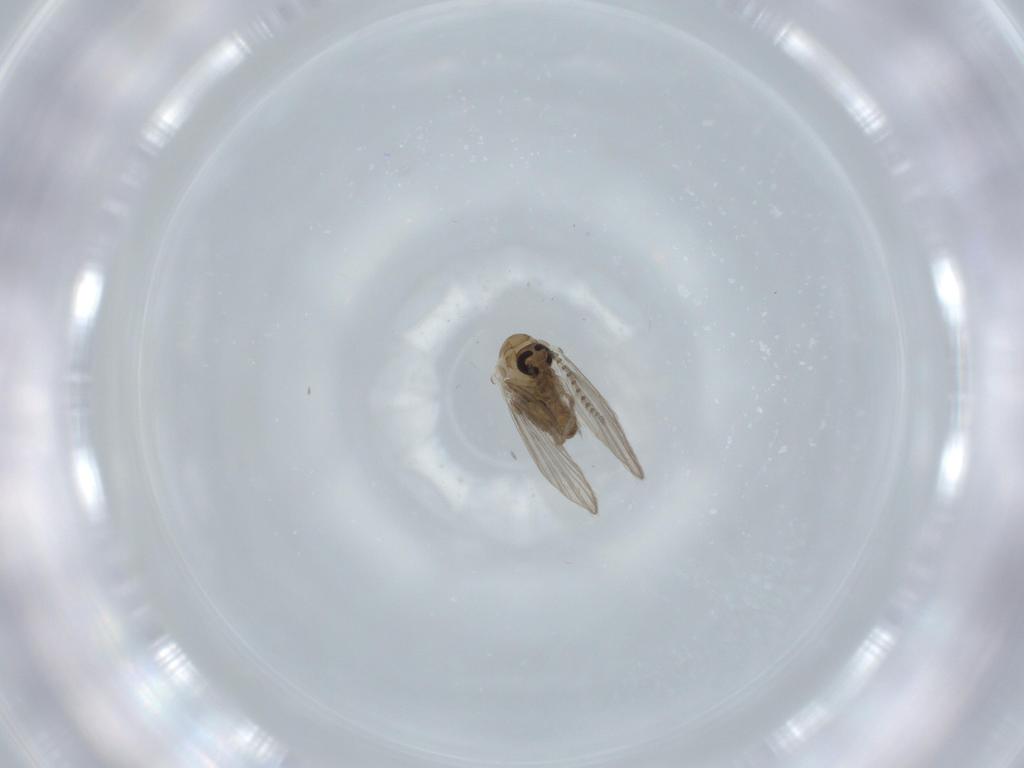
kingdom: Animalia
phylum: Arthropoda
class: Insecta
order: Diptera
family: Psychodidae
